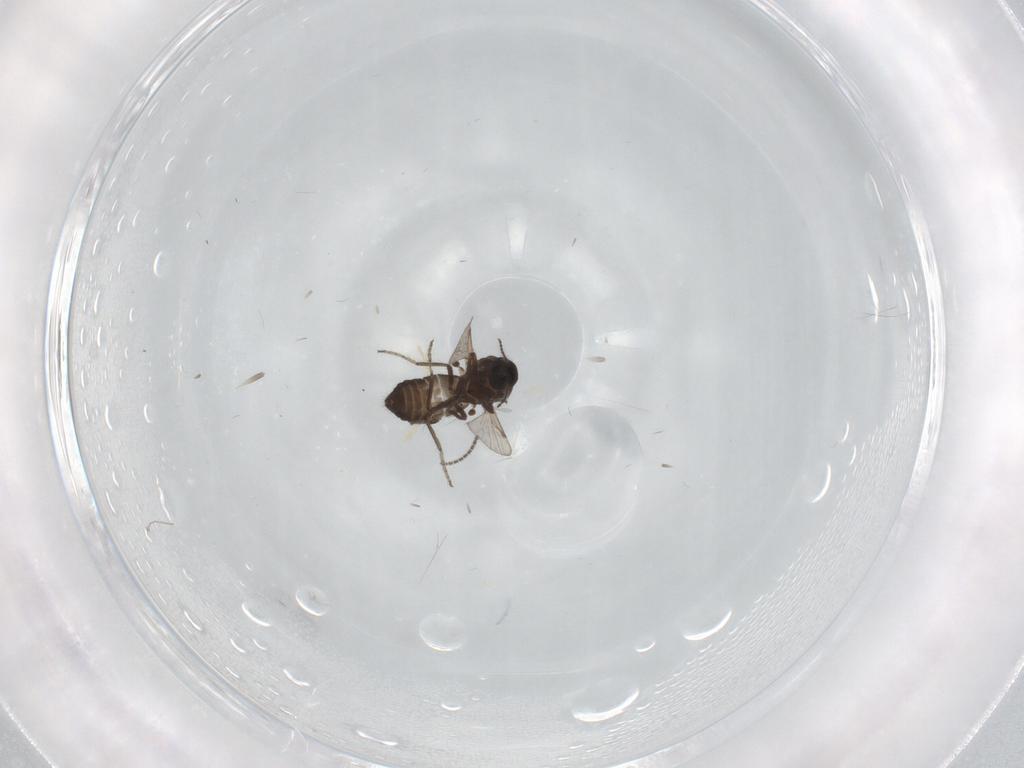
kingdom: Animalia
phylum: Arthropoda
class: Insecta
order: Diptera
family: Ceratopogonidae
